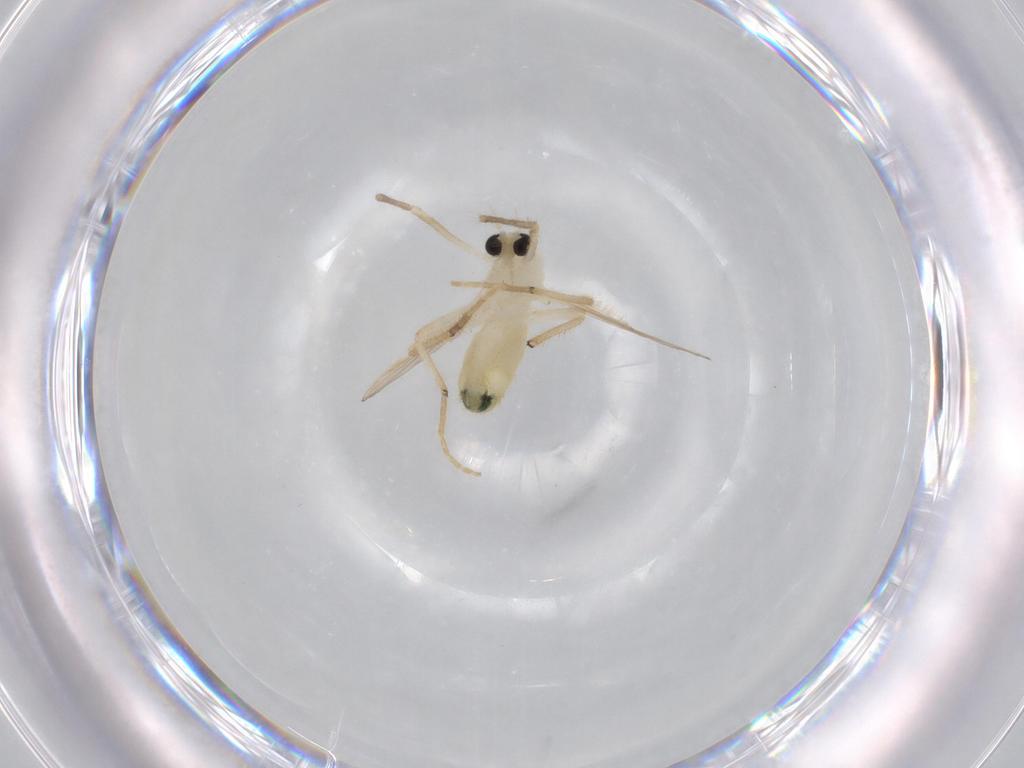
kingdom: Animalia
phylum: Arthropoda
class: Insecta
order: Diptera
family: Chironomidae
